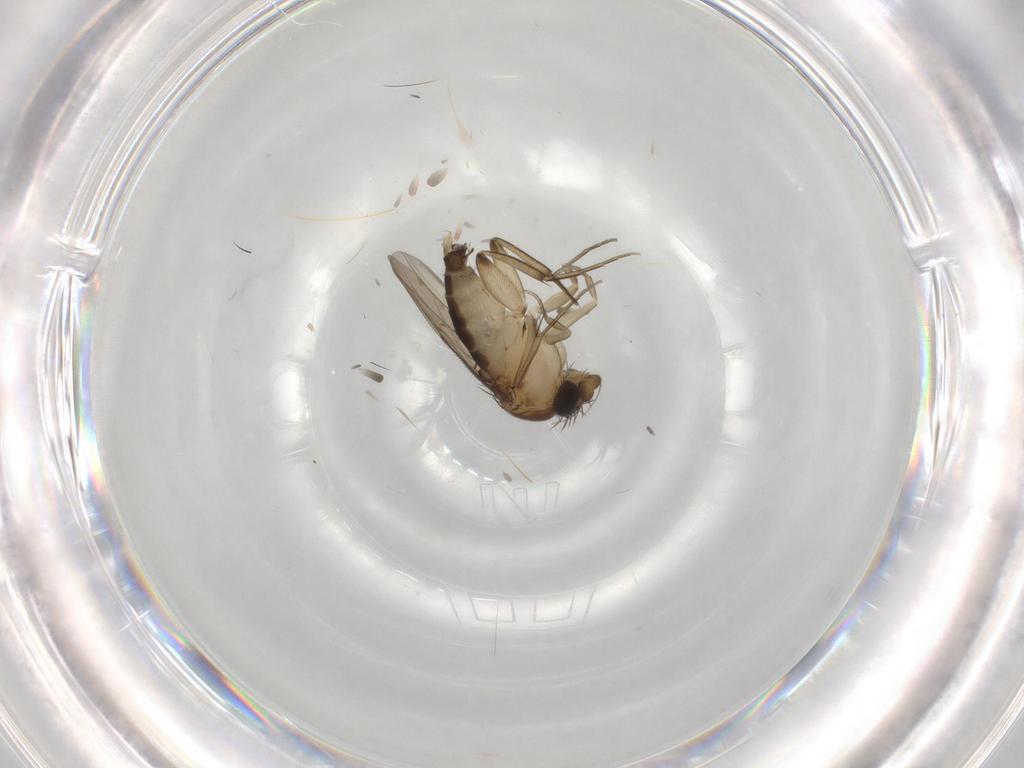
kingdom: Animalia
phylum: Arthropoda
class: Insecta
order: Diptera
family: Phoridae
